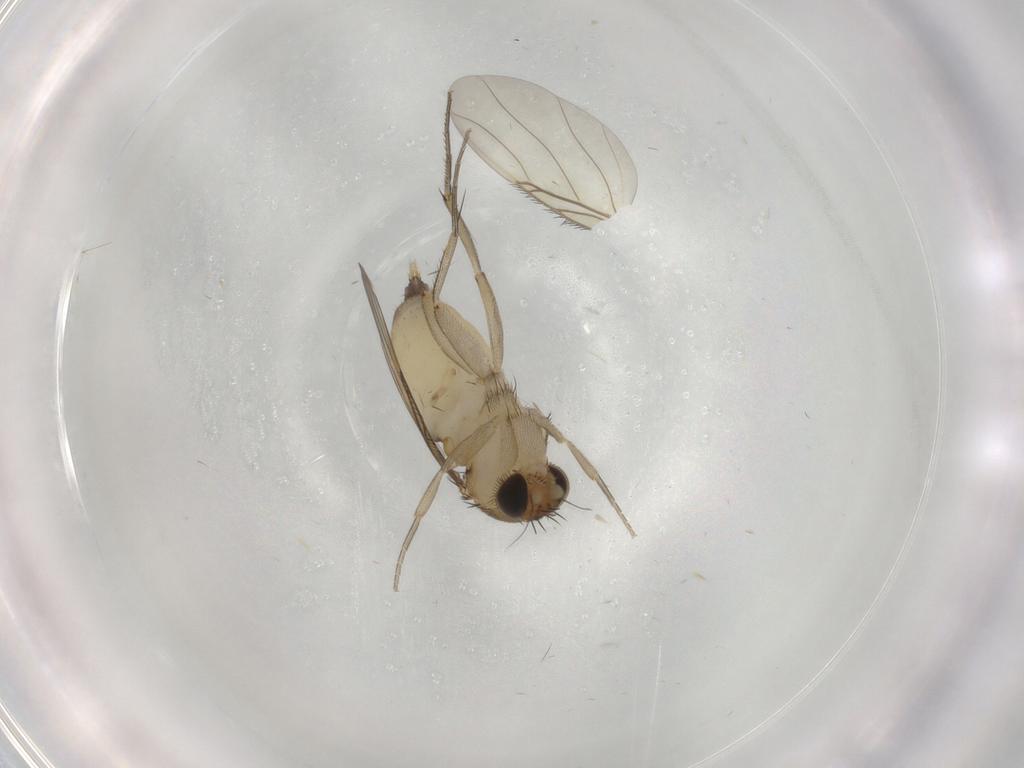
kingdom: Animalia
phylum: Arthropoda
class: Insecta
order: Diptera
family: Phoridae
